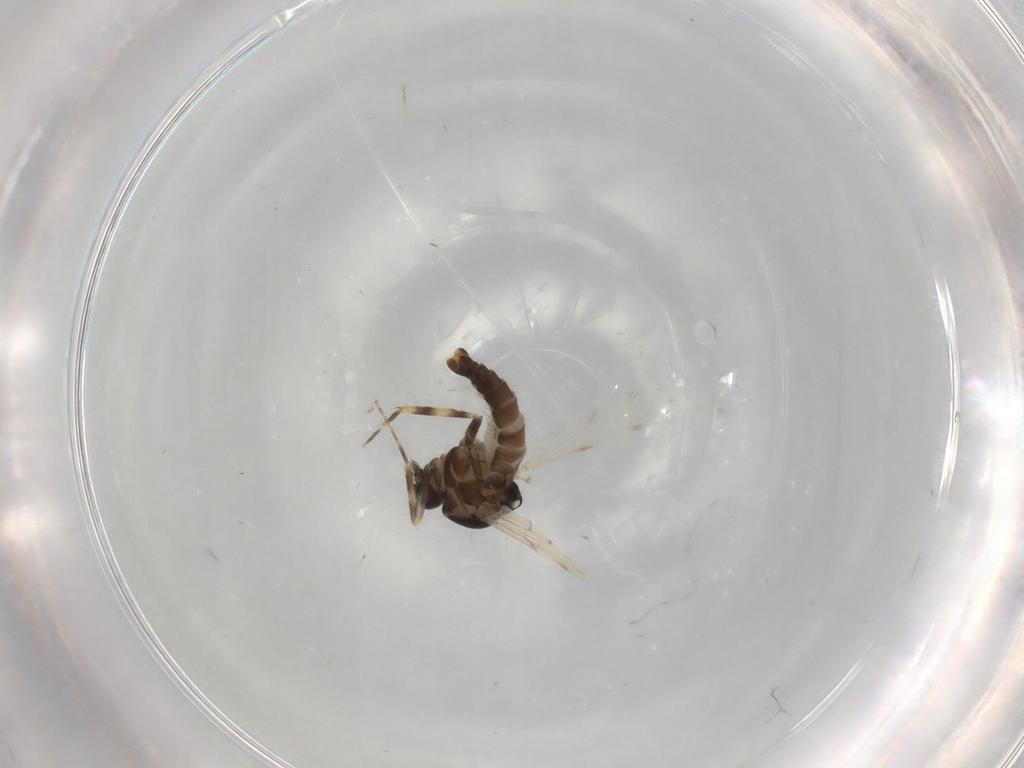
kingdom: Animalia
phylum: Arthropoda
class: Insecta
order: Diptera
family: Ceratopogonidae
